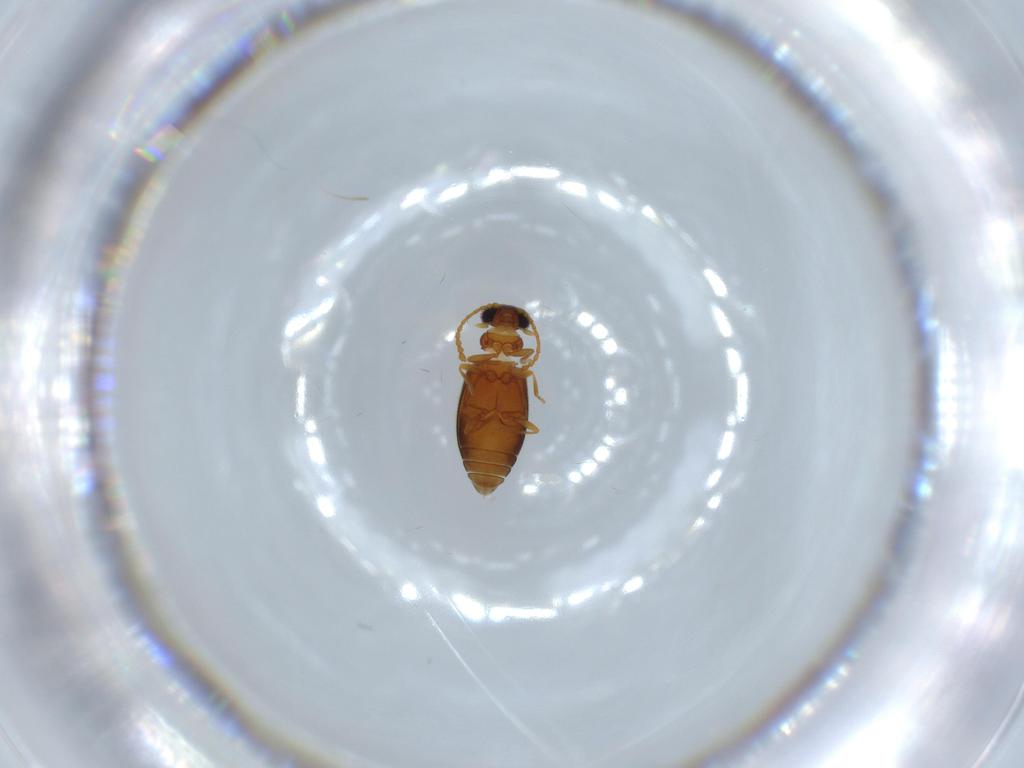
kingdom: Animalia
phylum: Arthropoda
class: Insecta
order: Coleoptera
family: Aderidae
